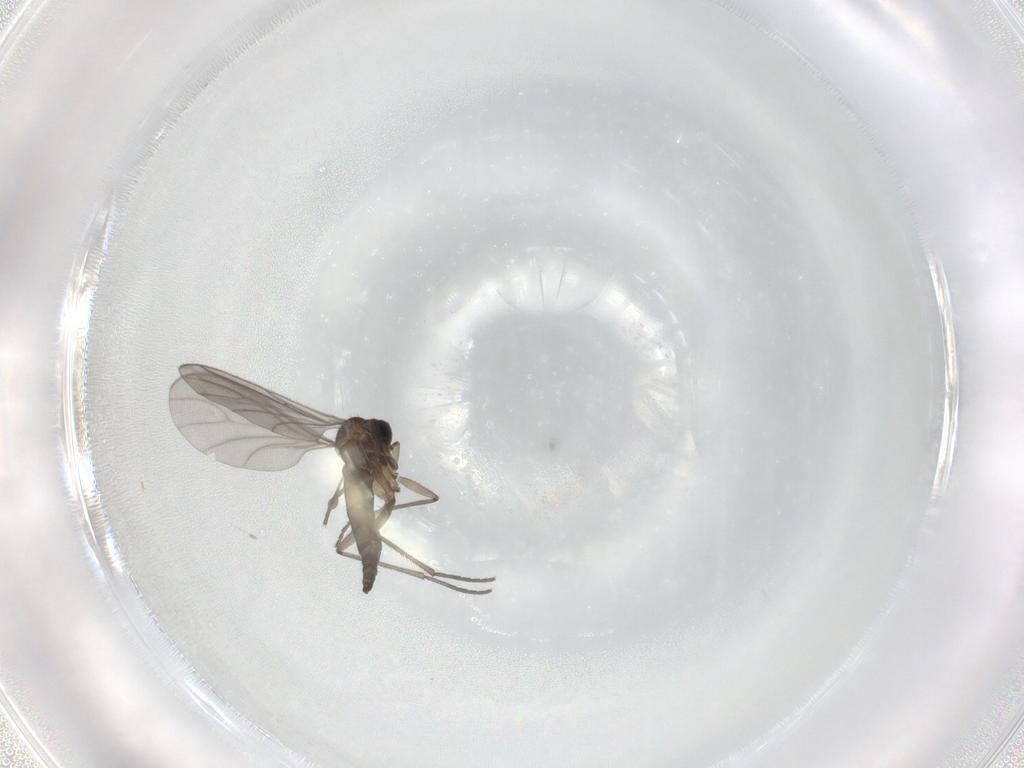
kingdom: Animalia
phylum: Arthropoda
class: Insecta
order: Diptera
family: Sciaridae
